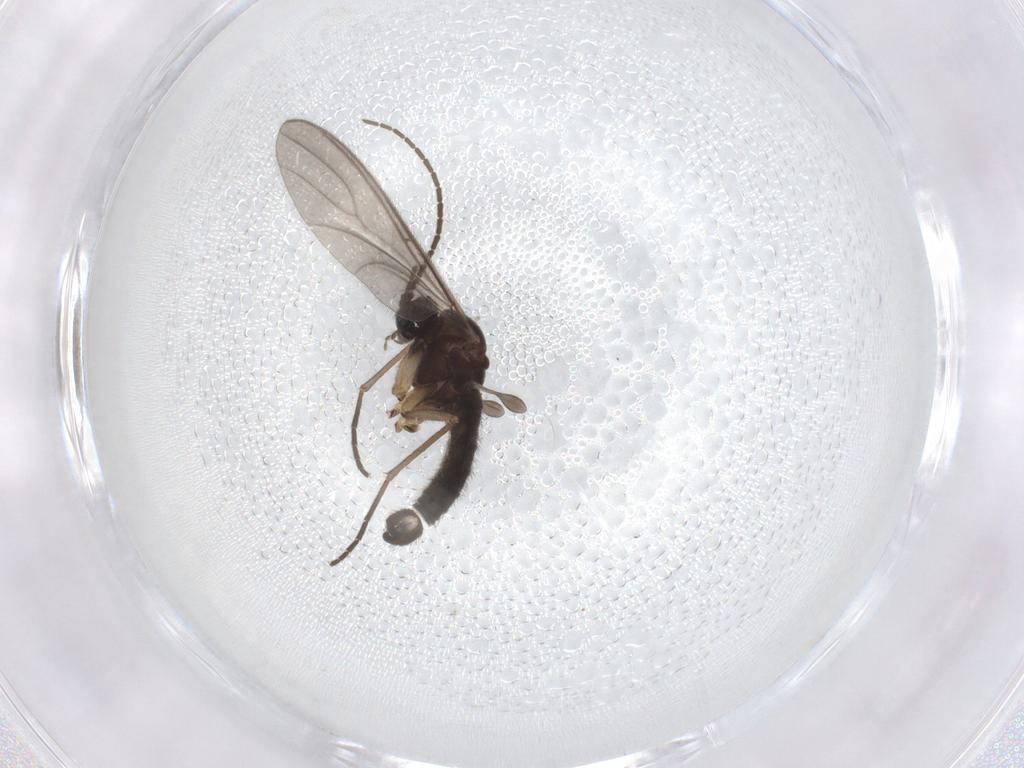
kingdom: Animalia
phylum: Arthropoda
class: Insecta
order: Diptera
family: Sciaridae
